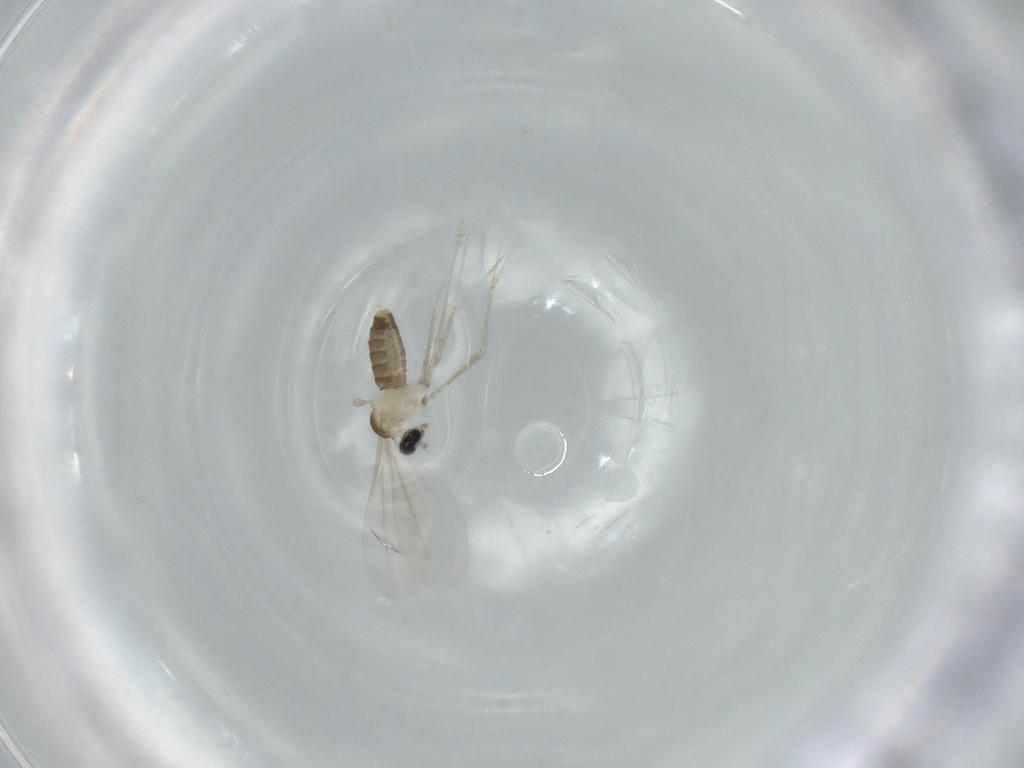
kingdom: Animalia
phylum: Arthropoda
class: Insecta
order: Diptera
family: Cecidomyiidae
